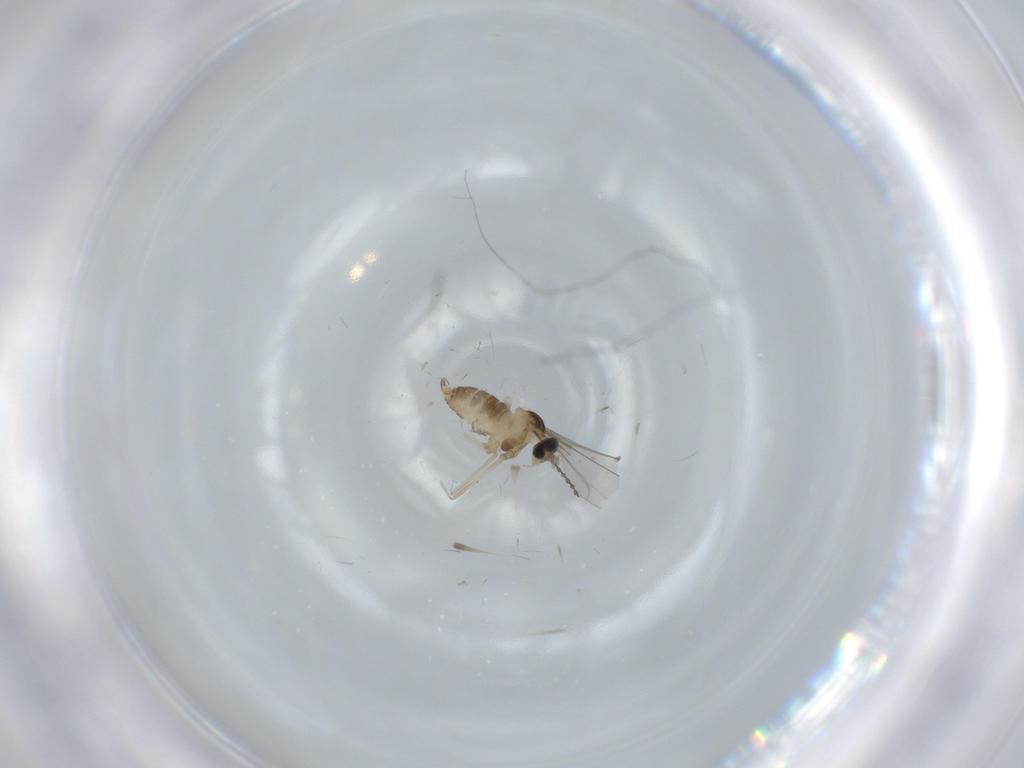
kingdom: Animalia
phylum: Arthropoda
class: Insecta
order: Diptera
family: Cecidomyiidae
